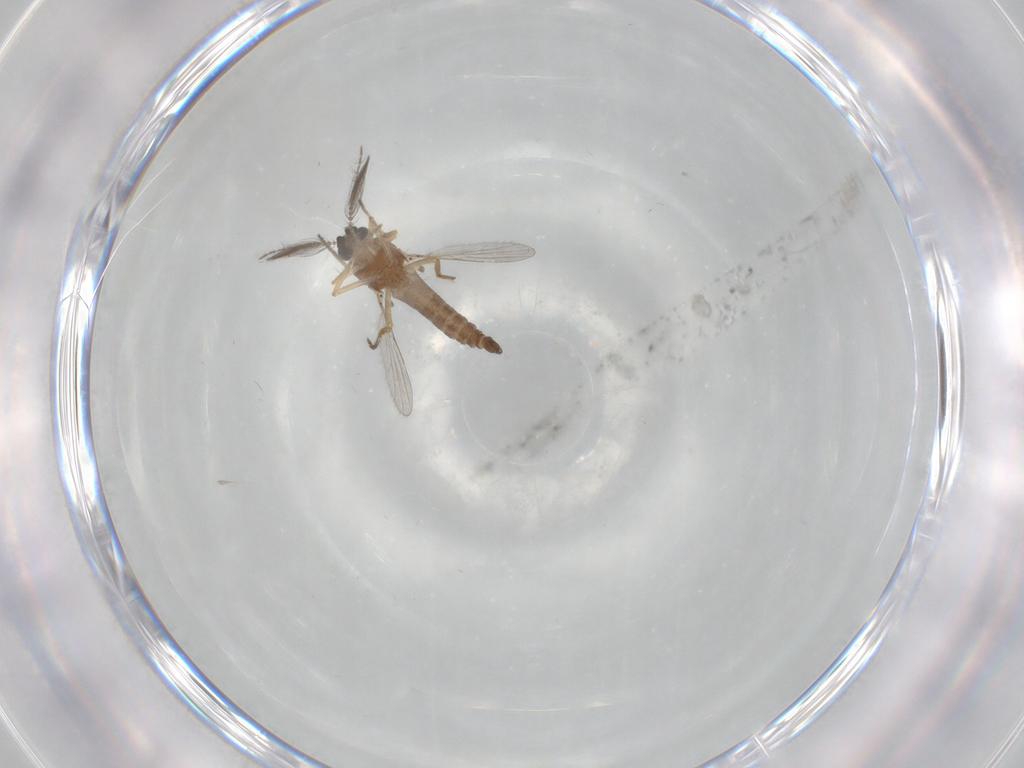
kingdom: Animalia
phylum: Arthropoda
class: Insecta
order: Diptera
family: Ceratopogonidae
